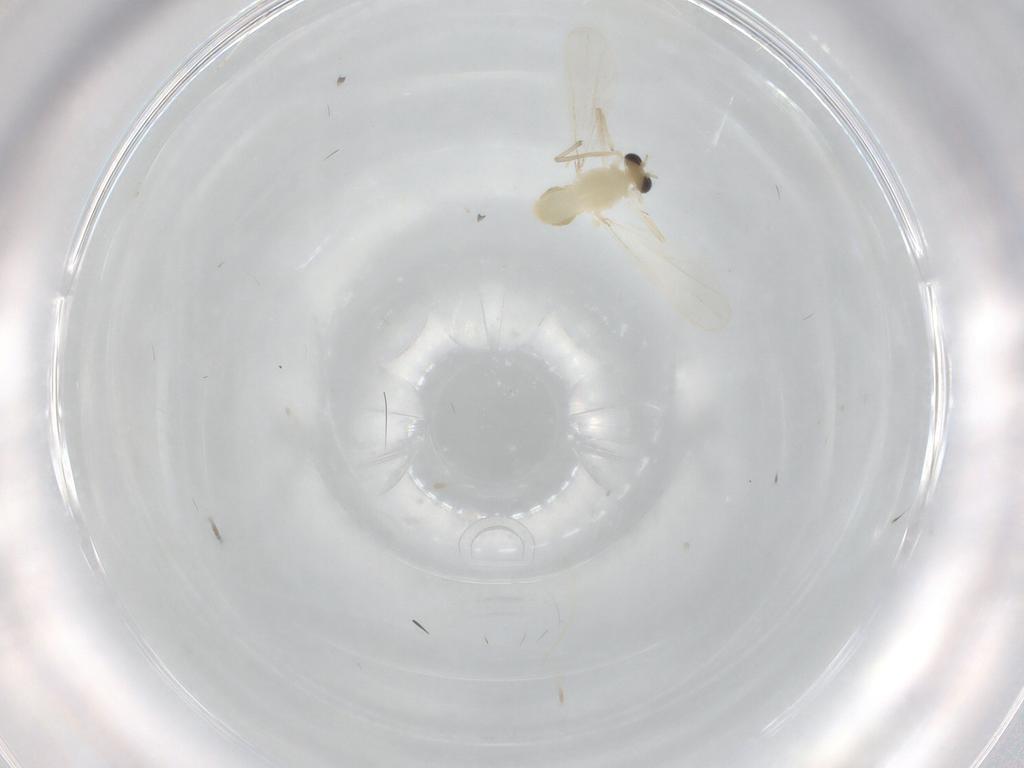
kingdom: Animalia
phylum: Arthropoda
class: Insecta
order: Diptera
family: Chironomidae
